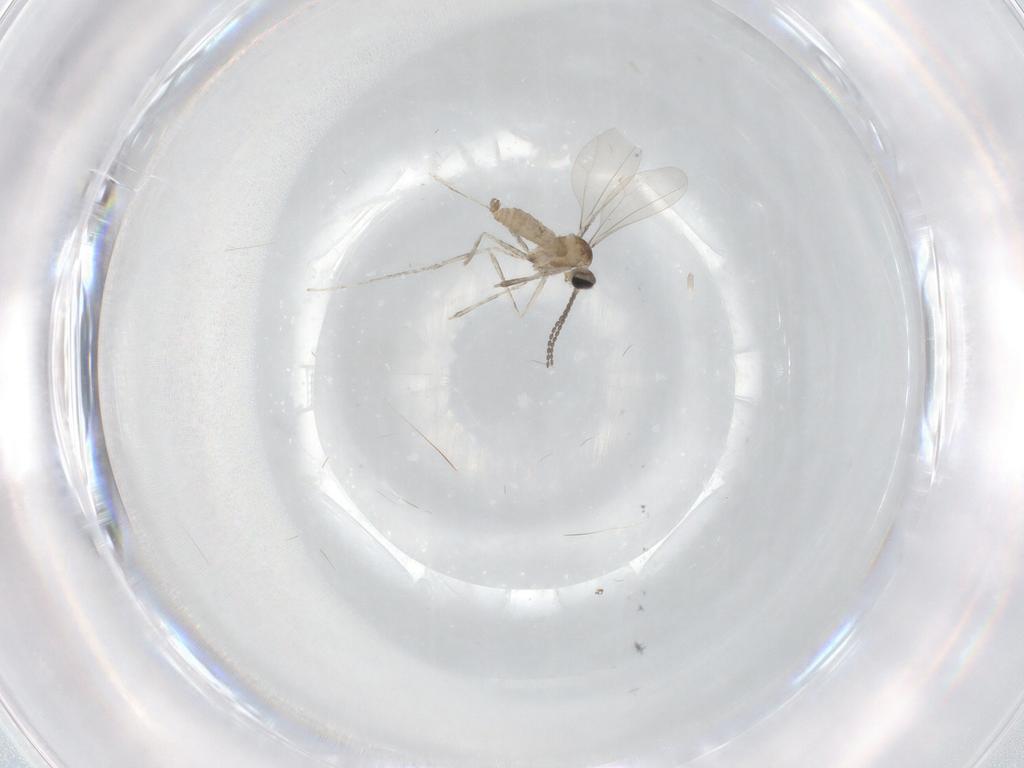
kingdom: Animalia
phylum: Arthropoda
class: Insecta
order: Diptera
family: Cecidomyiidae
